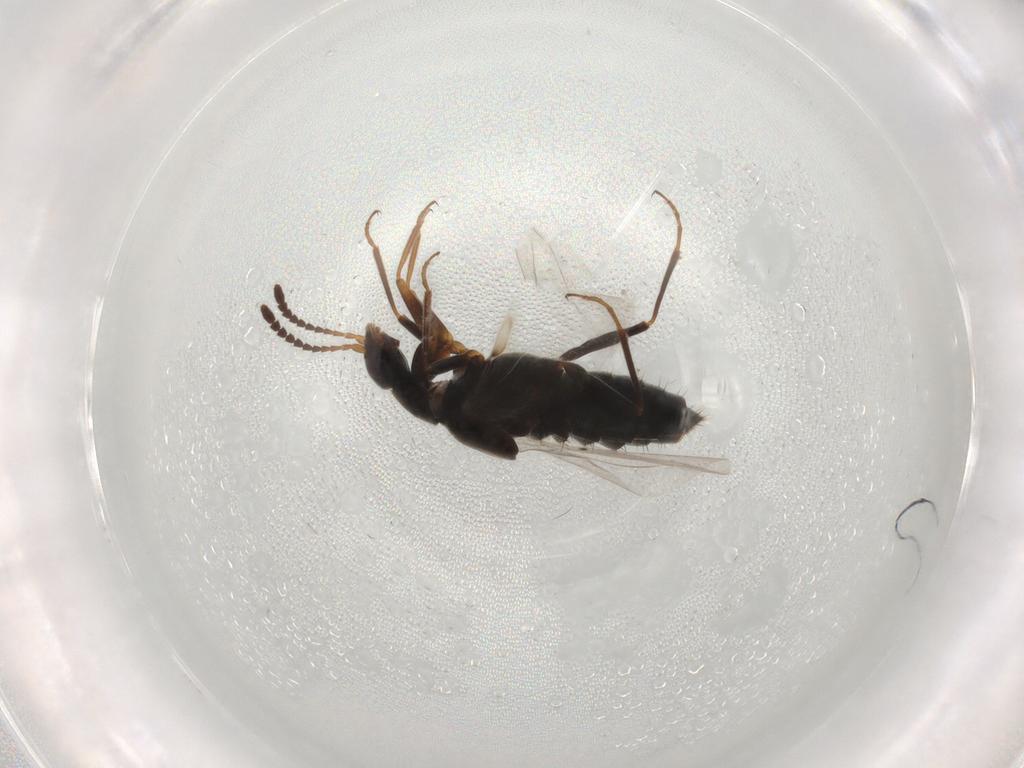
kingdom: Animalia
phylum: Arthropoda
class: Insecta
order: Coleoptera
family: Staphylinidae
